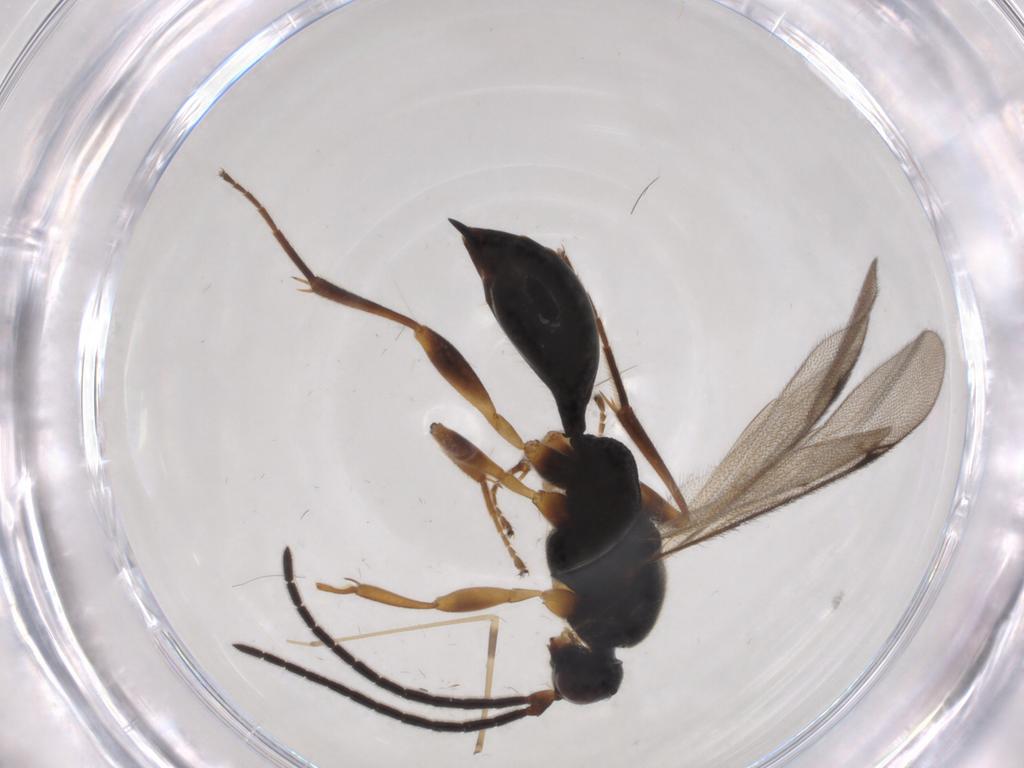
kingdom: Animalia
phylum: Arthropoda
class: Insecta
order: Hymenoptera
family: Proctotrupidae
